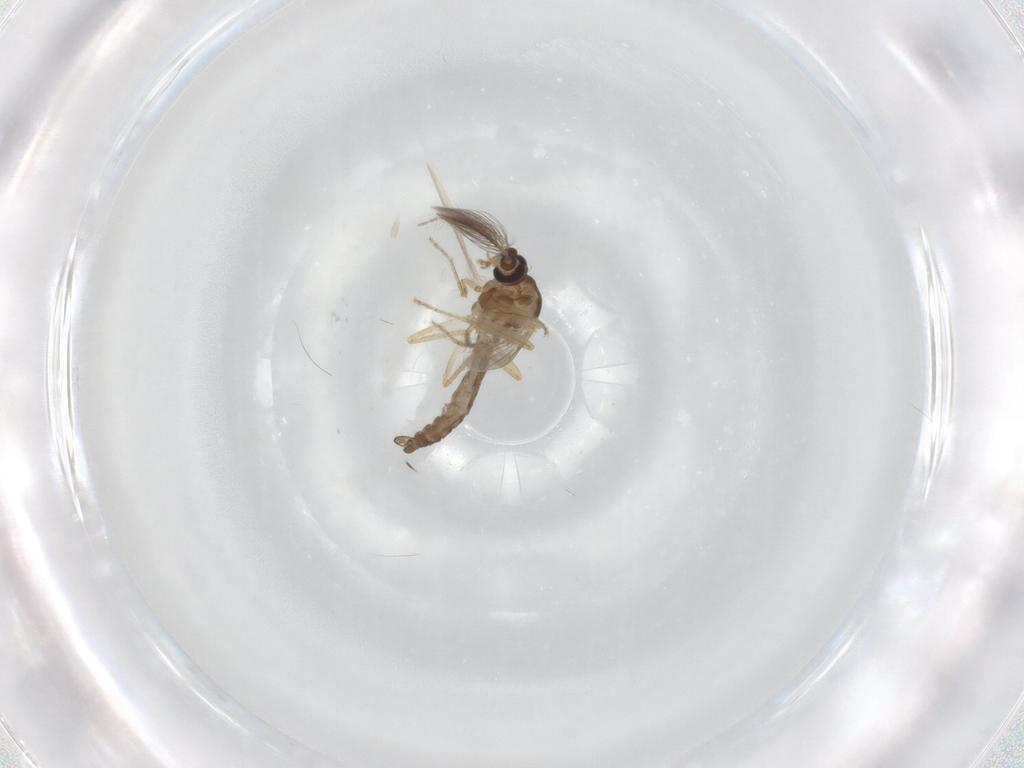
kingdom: Animalia
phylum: Arthropoda
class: Insecta
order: Diptera
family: Ceratopogonidae
